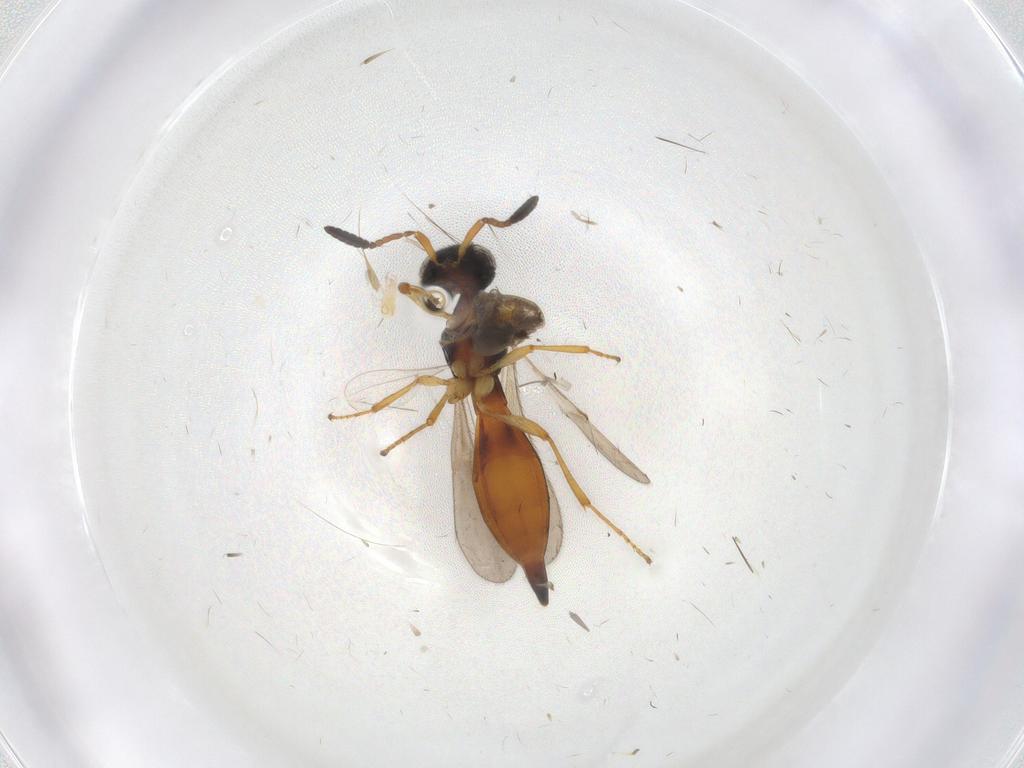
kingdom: Animalia
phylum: Arthropoda
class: Insecta
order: Hymenoptera
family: Scelionidae
